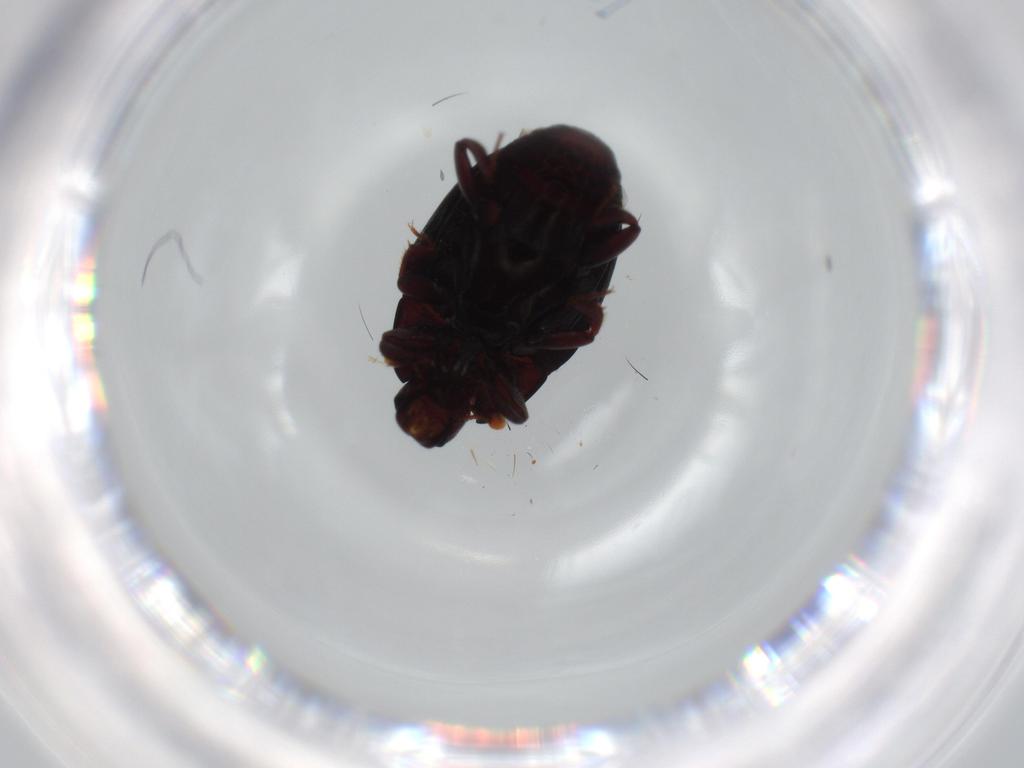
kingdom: Animalia
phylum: Arthropoda
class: Insecta
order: Coleoptera
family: Staphylinidae
